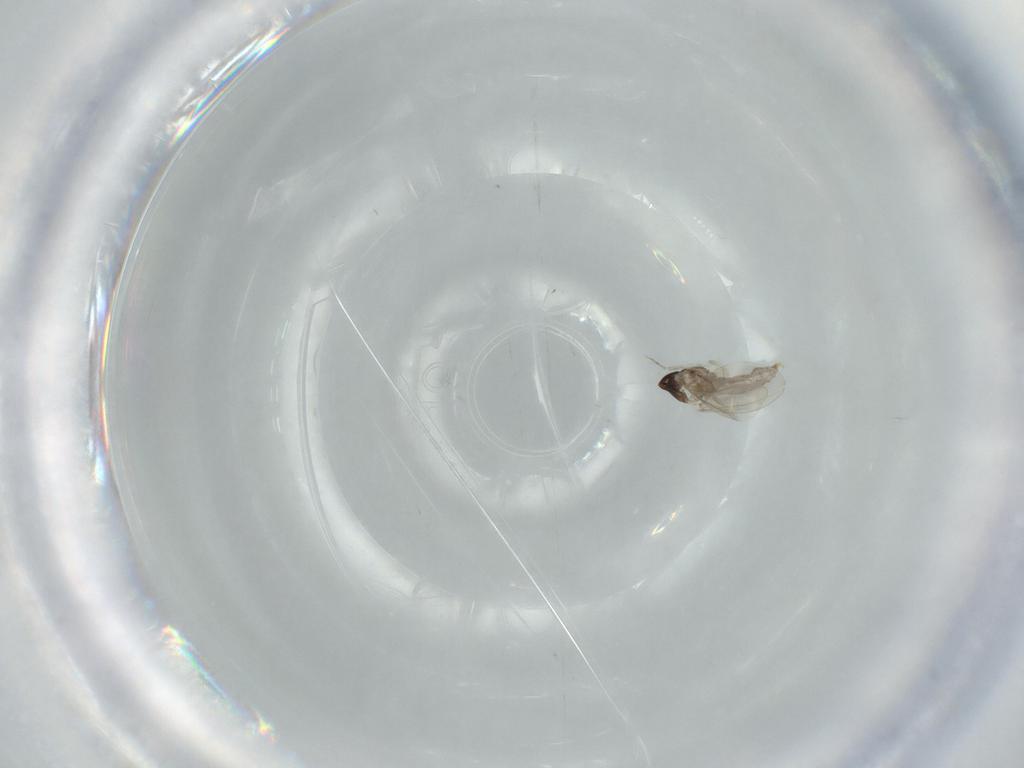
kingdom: Animalia
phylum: Arthropoda
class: Insecta
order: Diptera
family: Cecidomyiidae
